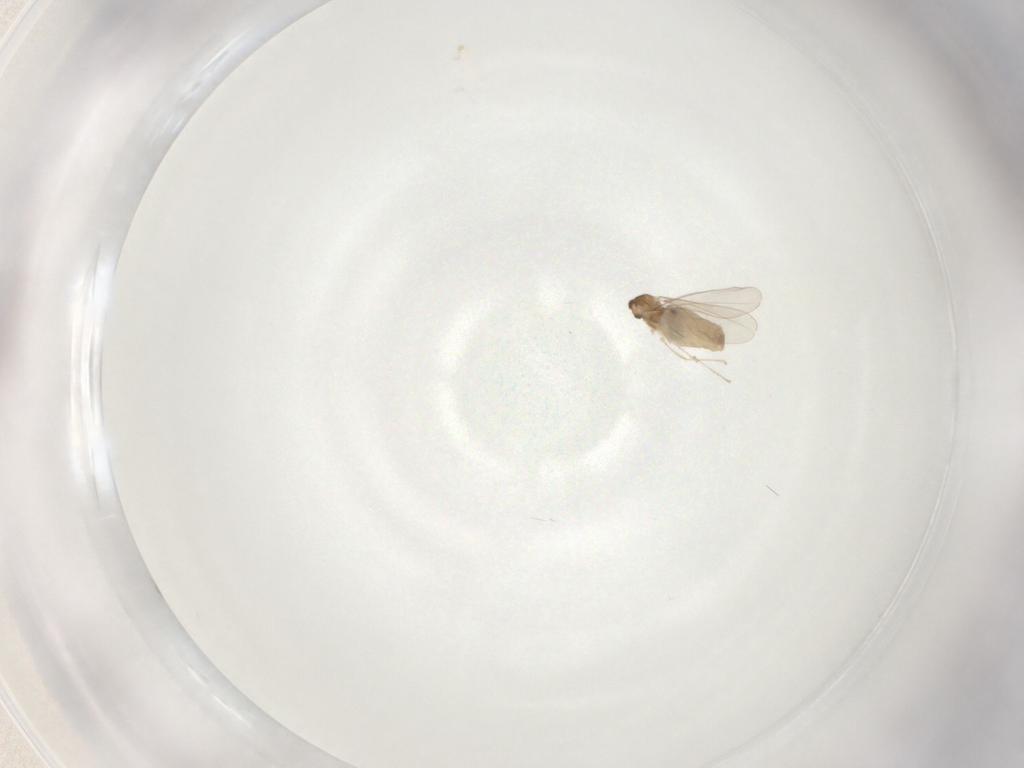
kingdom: Animalia
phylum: Arthropoda
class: Insecta
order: Diptera
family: Cecidomyiidae
